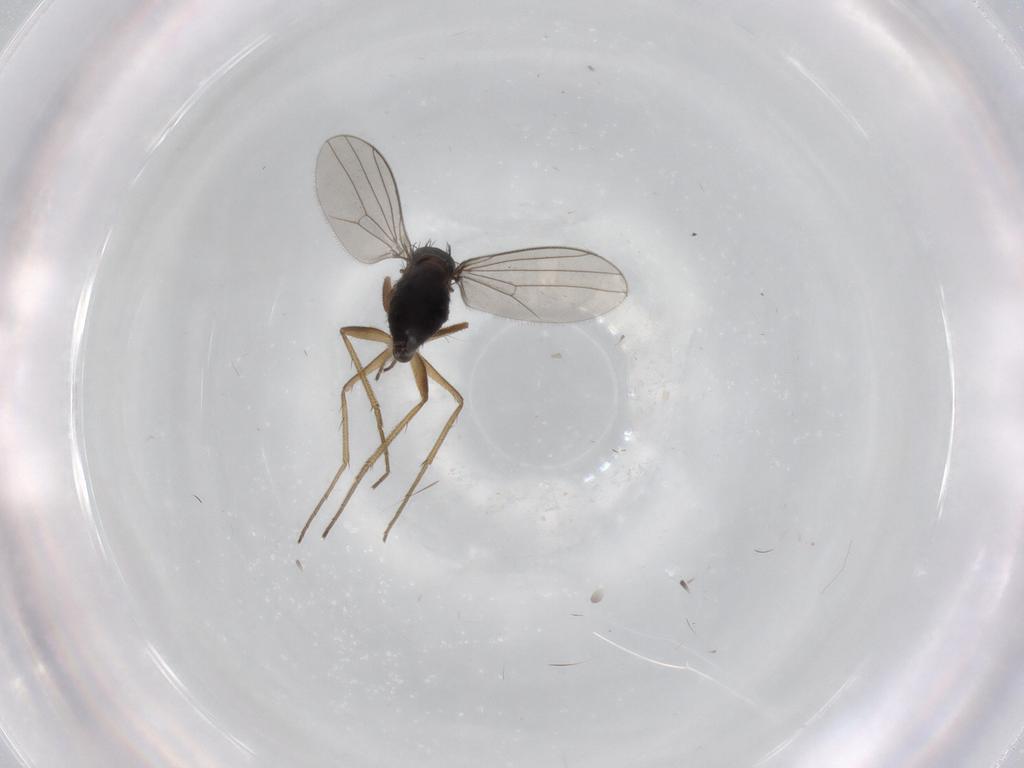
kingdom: Animalia
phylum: Arthropoda
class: Insecta
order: Diptera
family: Dolichopodidae
